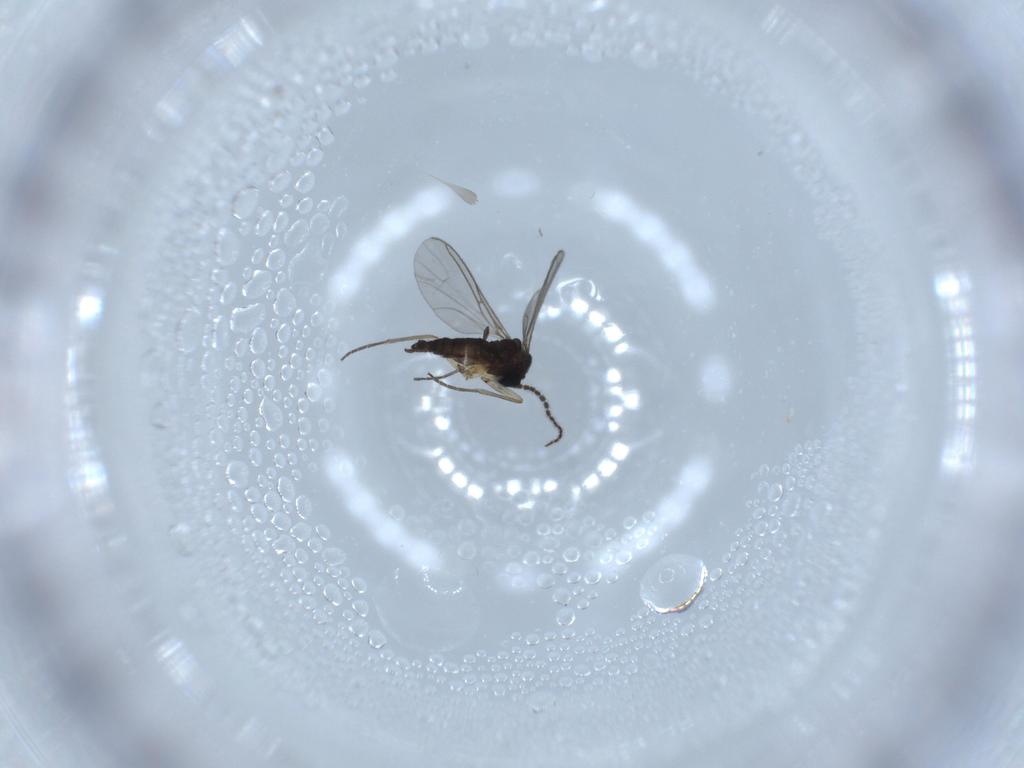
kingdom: Animalia
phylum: Arthropoda
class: Insecta
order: Diptera
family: Sciaridae
